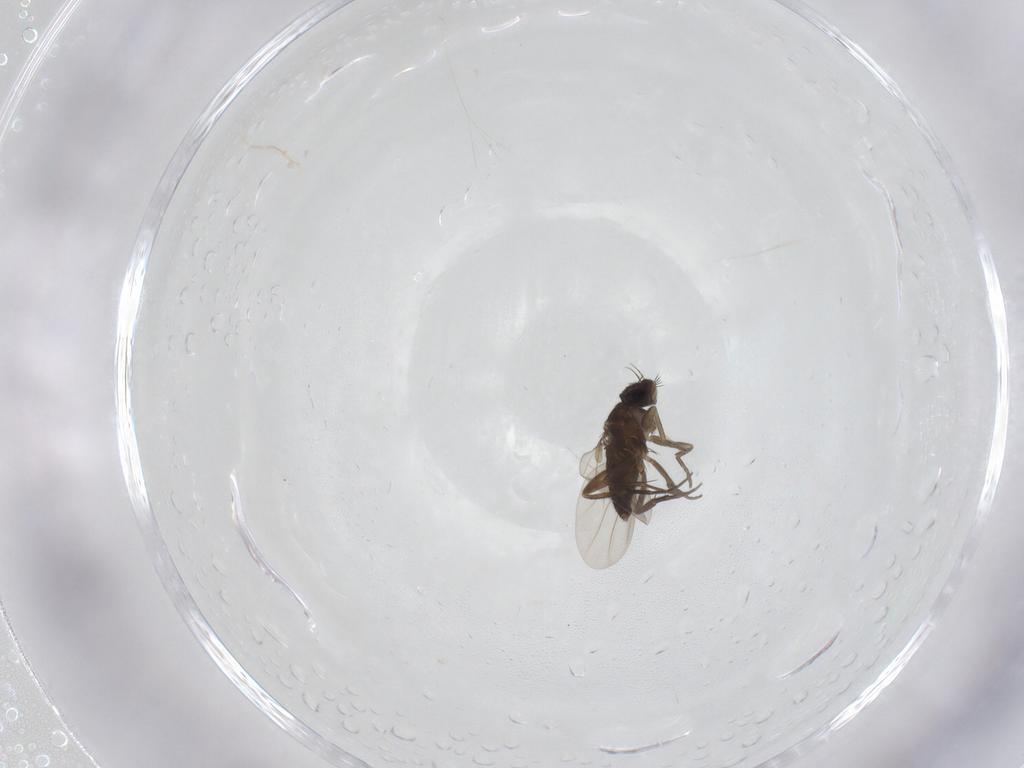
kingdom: Animalia
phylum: Arthropoda
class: Insecta
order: Diptera
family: Phoridae
